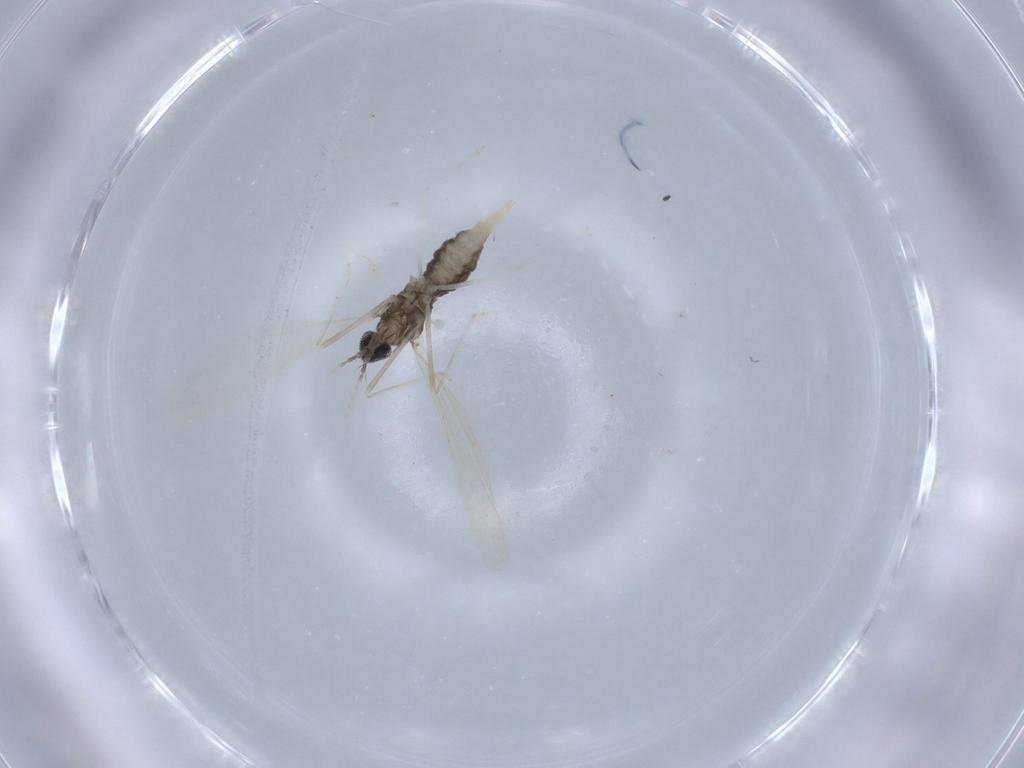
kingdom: Animalia
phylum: Arthropoda
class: Insecta
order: Diptera
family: Cecidomyiidae
